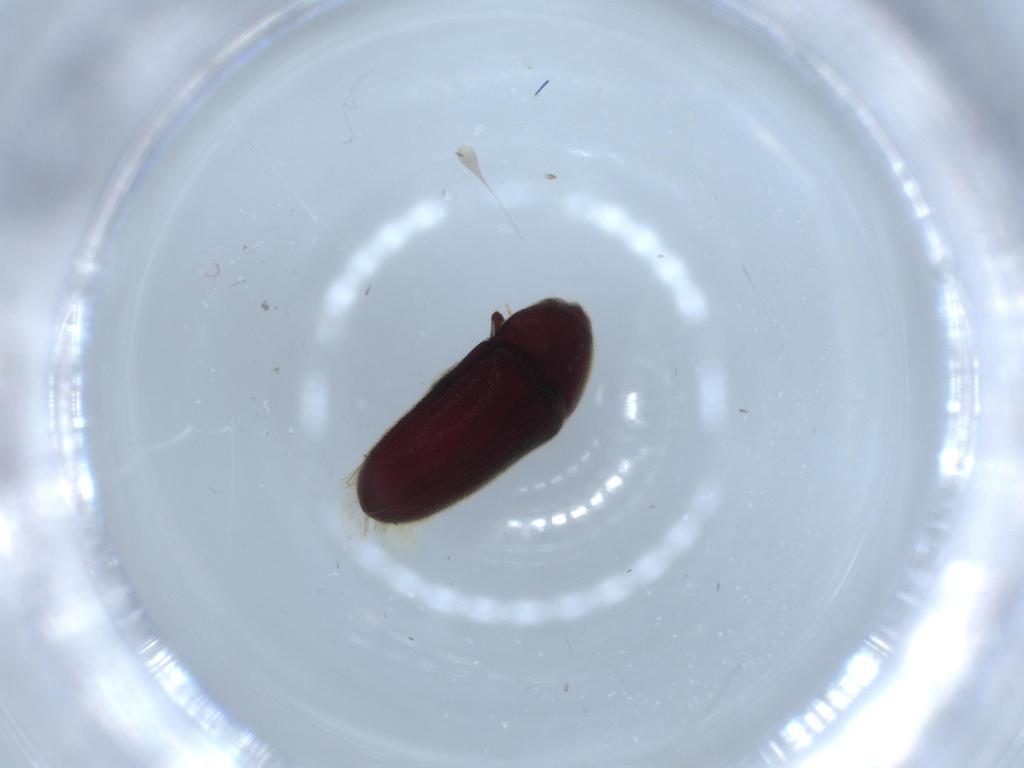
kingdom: Animalia
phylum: Arthropoda
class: Insecta
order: Coleoptera
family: Throscidae
